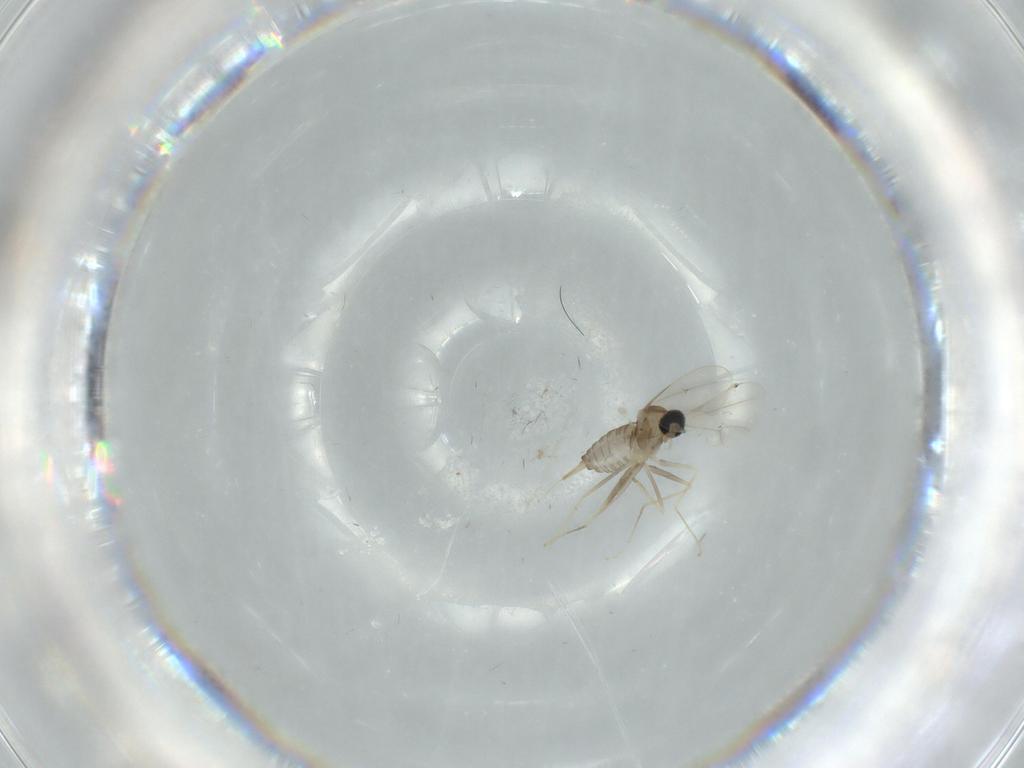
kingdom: Animalia
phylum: Arthropoda
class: Insecta
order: Diptera
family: Cecidomyiidae
